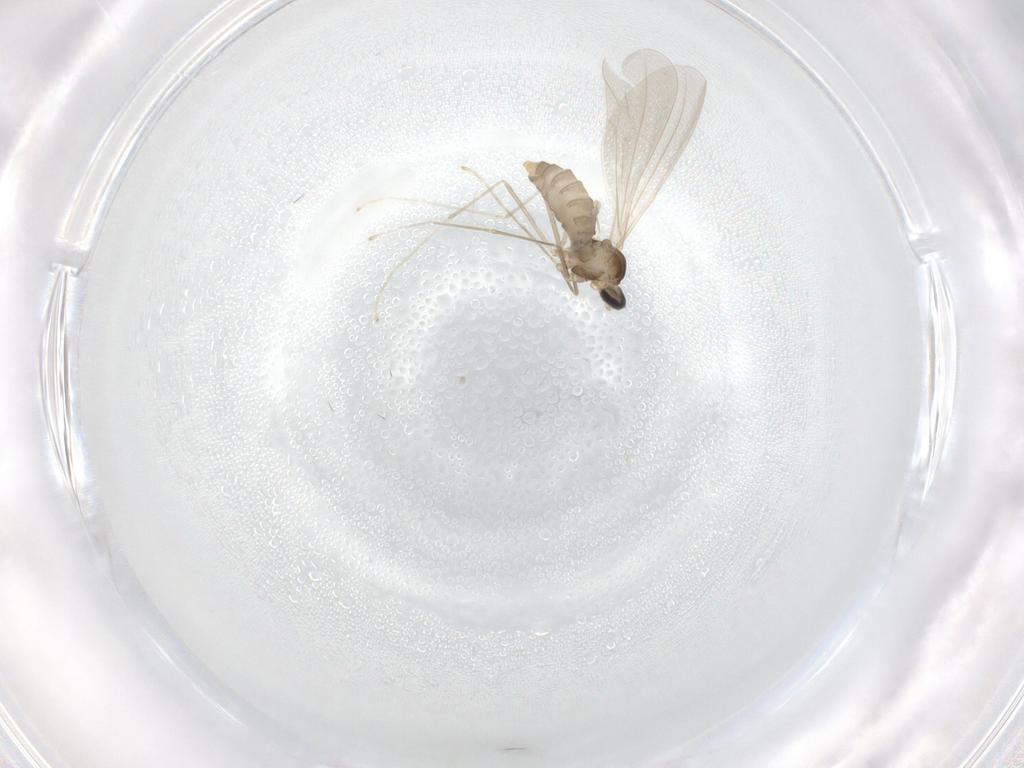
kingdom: Animalia
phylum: Arthropoda
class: Insecta
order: Diptera
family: Cecidomyiidae
